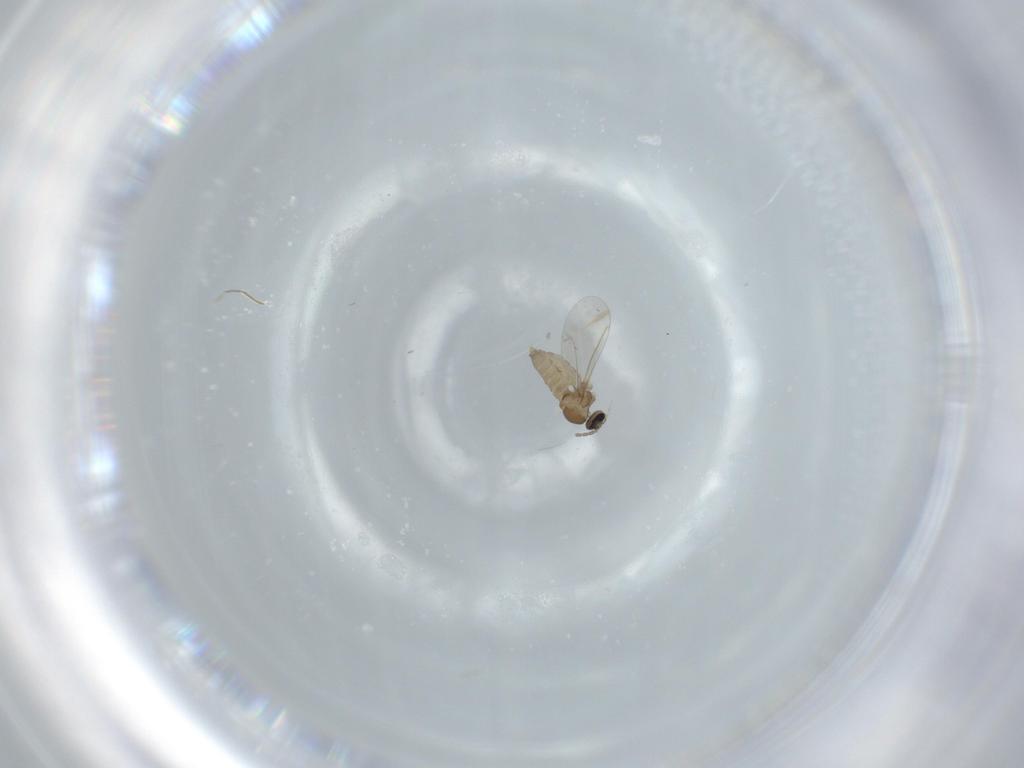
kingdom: Animalia
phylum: Arthropoda
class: Insecta
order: Diptera
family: Cecidomyiidae
